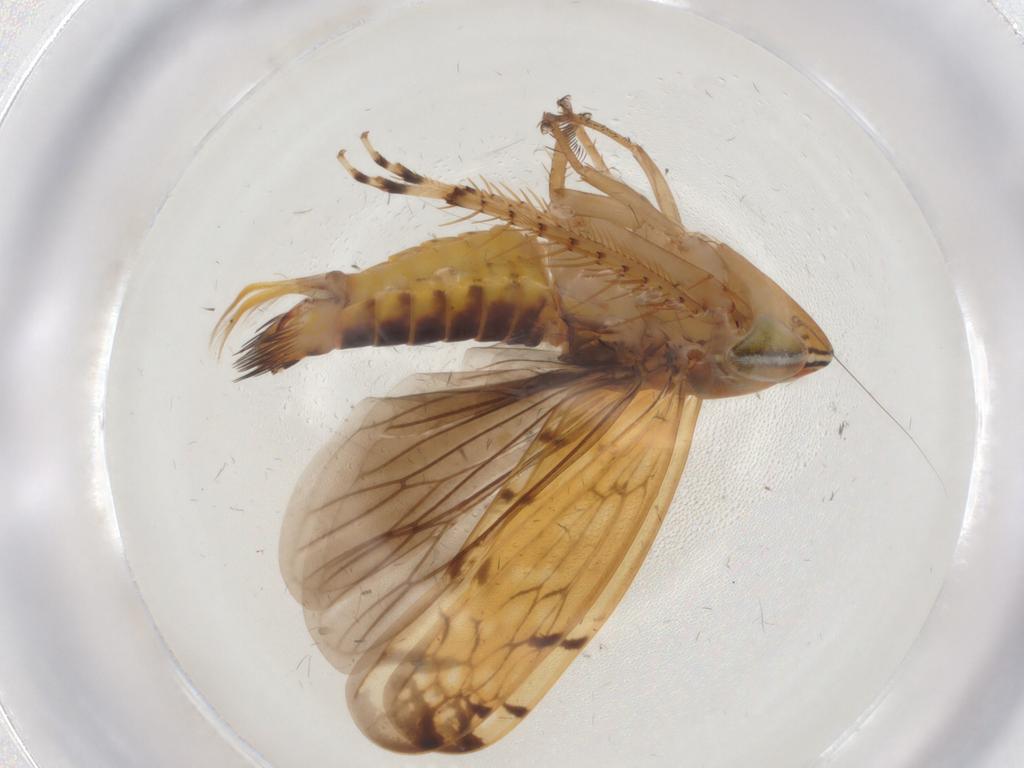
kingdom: Animalia
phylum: Arthropoda
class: Insecta
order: Hemiptera
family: Cicadellidae
